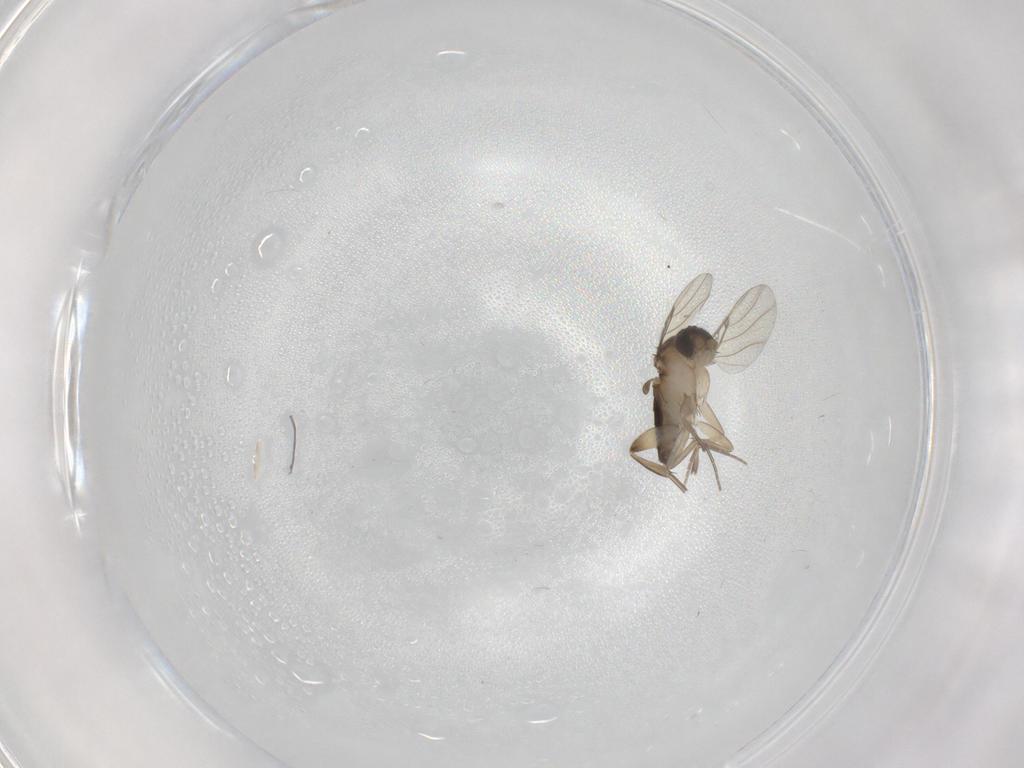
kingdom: Animalia
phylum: Arthropoda
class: Insecta
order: Diptera
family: Phoridae
